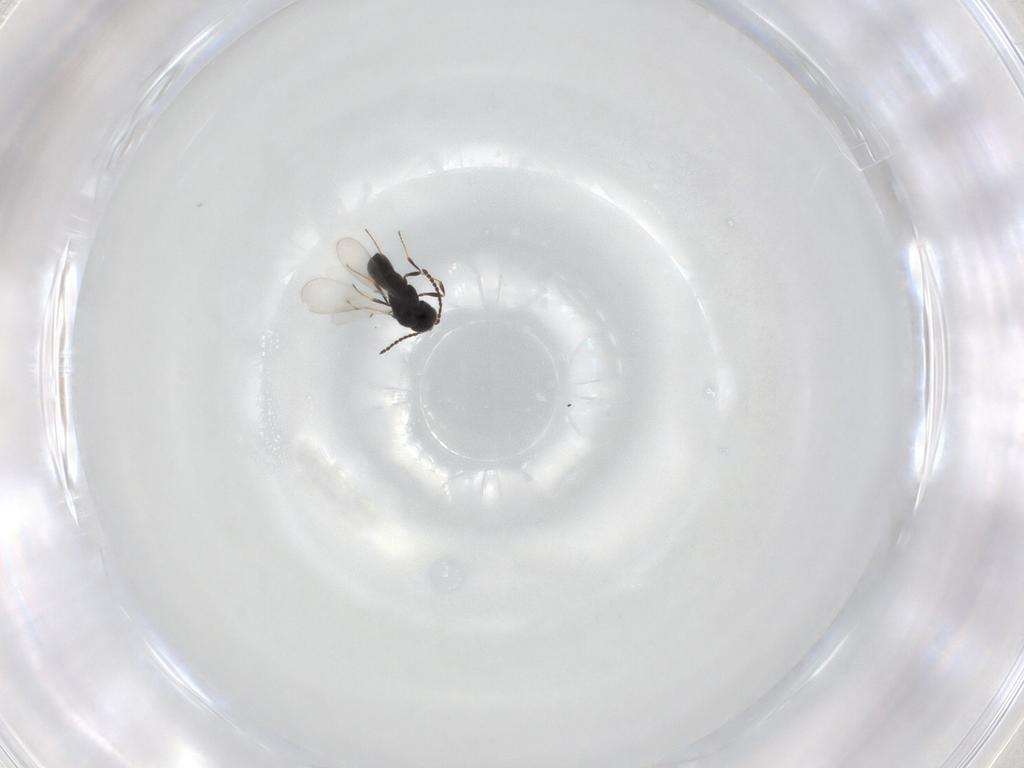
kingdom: Animalia
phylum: Arthropoda
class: Insecta
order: Hymenoptera
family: Scelionidae
